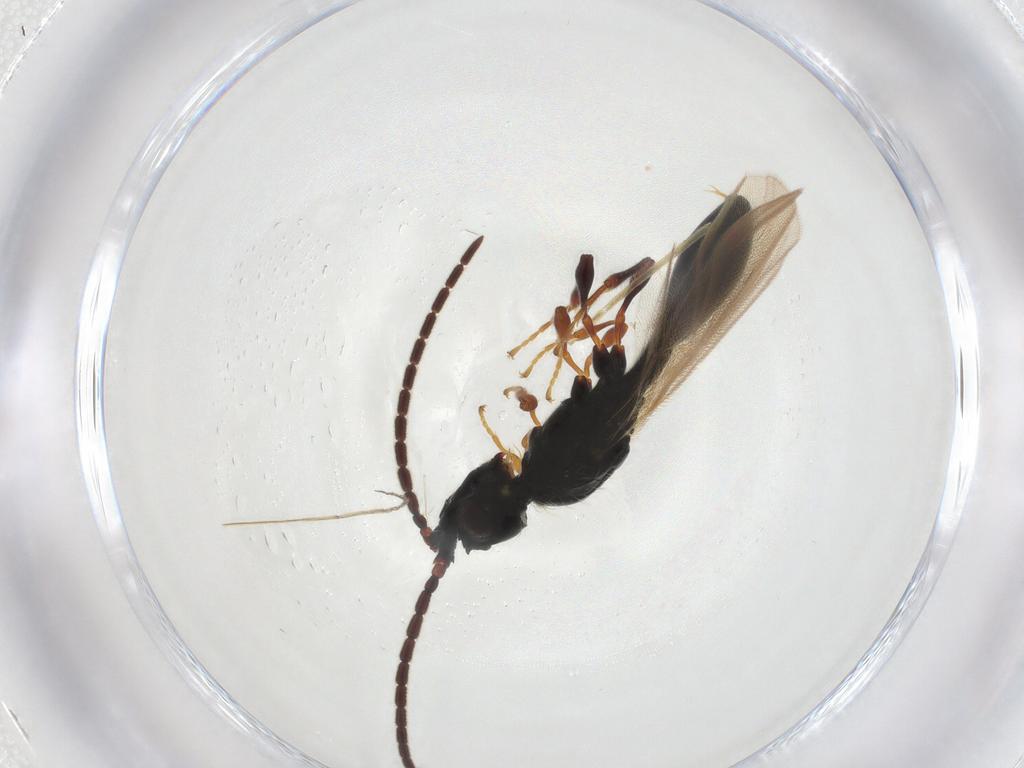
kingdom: Animalia
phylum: Arthropoda
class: Insecta
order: Hymenoptera
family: Diapriidae
